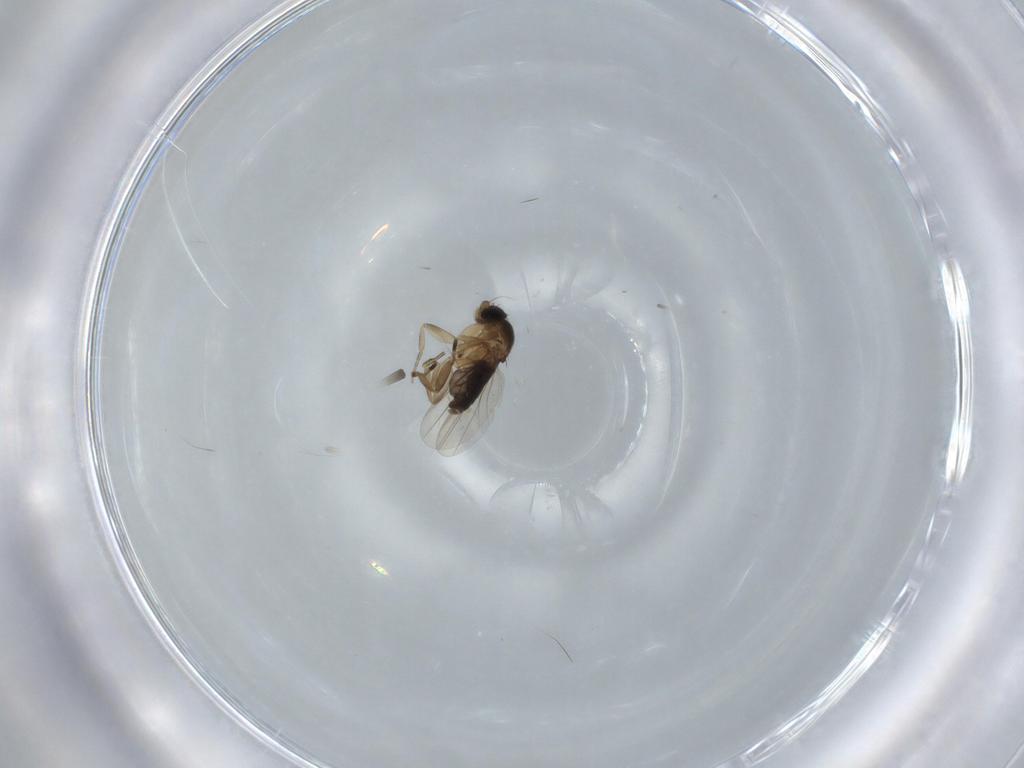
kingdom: Animalia
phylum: Arthropoda
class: Insecta
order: Diptera
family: Phoridae
